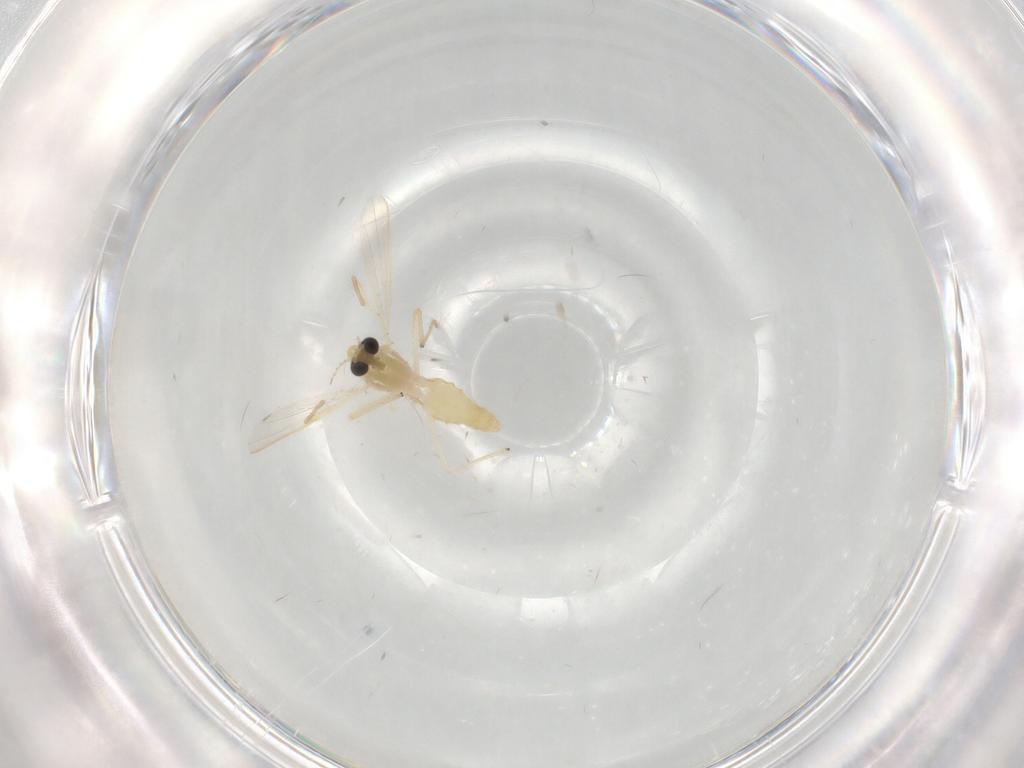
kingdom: Animalia
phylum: Arthropoda
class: Insecta
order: Diptera
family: Chironomidae
